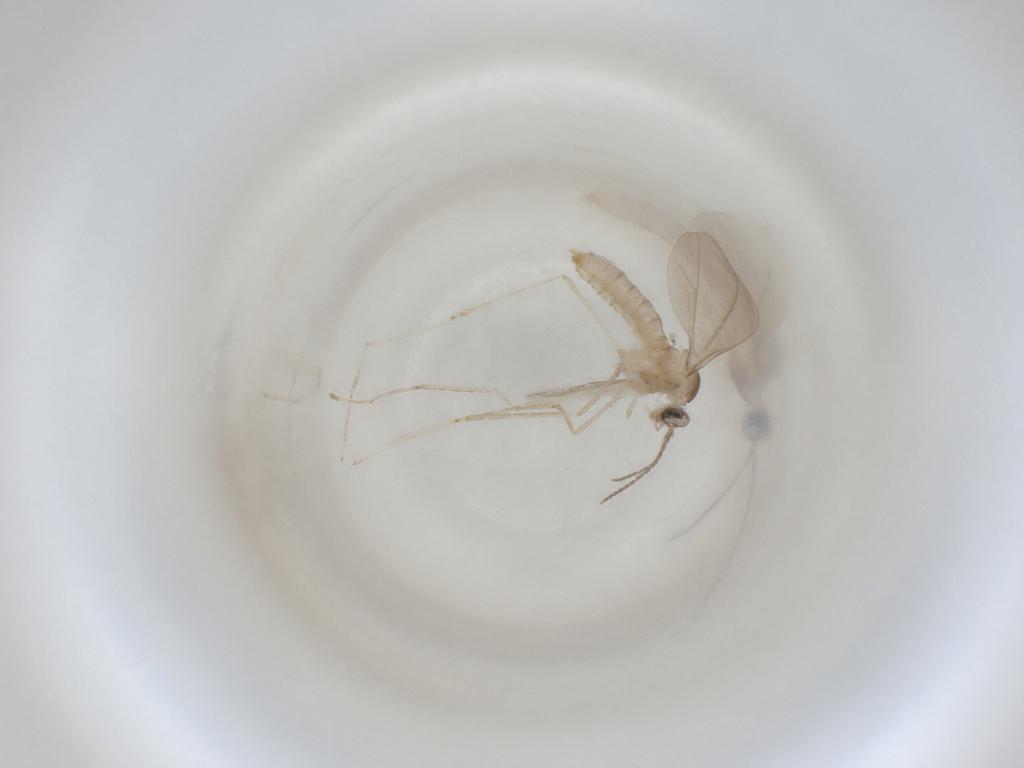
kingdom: Animalia
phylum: Arthropoda
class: Insecta
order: Diptera
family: Cecidomyiidae
